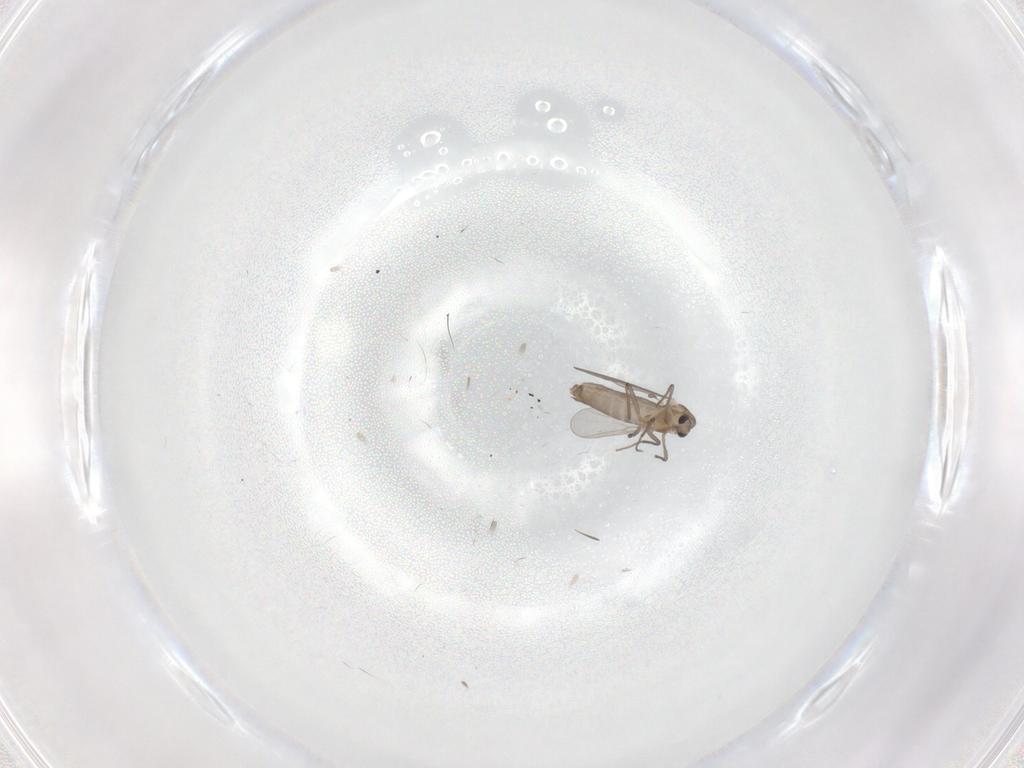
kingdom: Animalia
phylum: Arthropoda
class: Insecta
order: Diptera
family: Chironomidae
